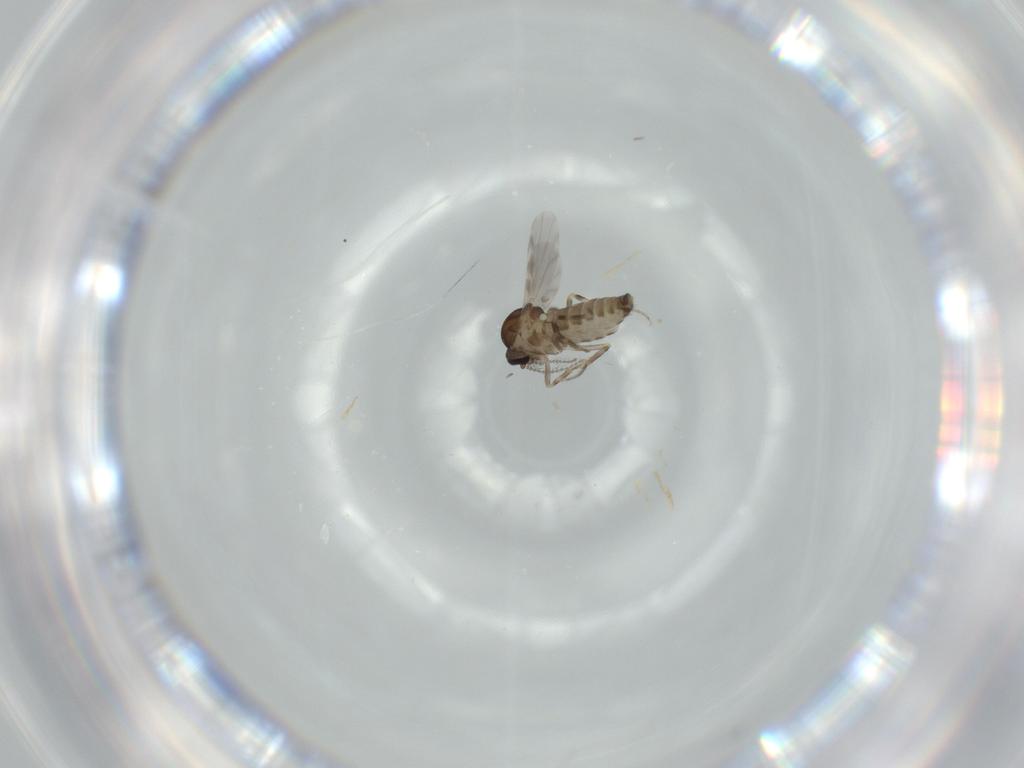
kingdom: Animalia
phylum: Arthropoda
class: Insecta
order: Diptera
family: Ceratopogonidae
